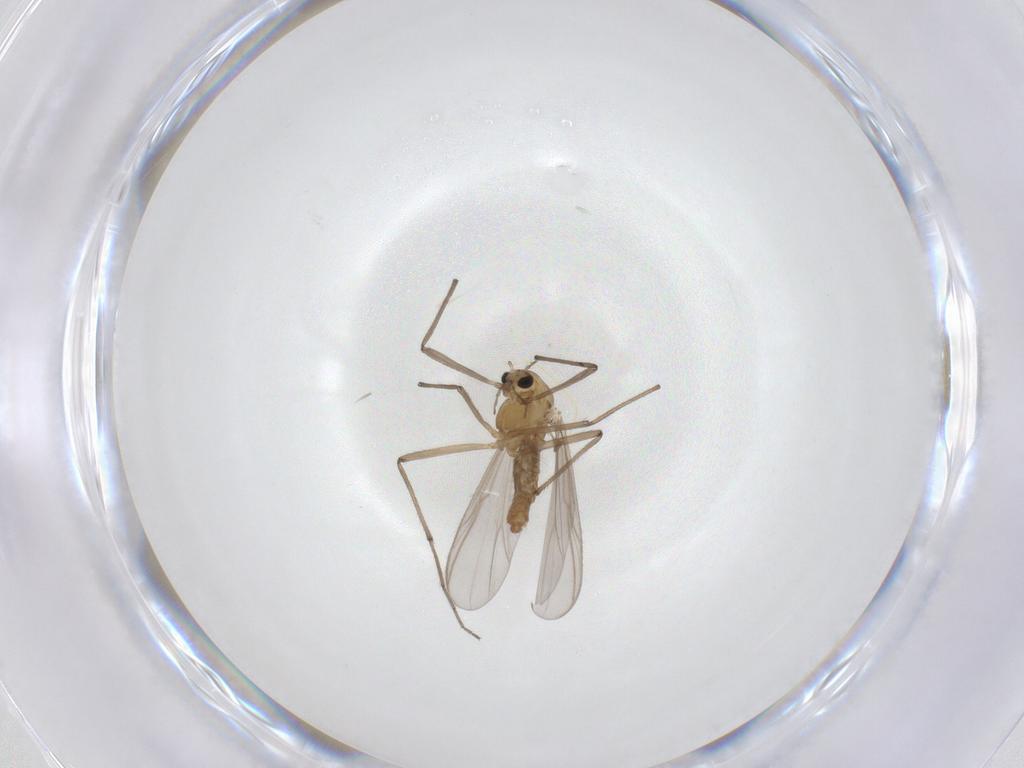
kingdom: Animalia
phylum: Arthropoda
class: Insecta
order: Diptera
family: Chironomidae
